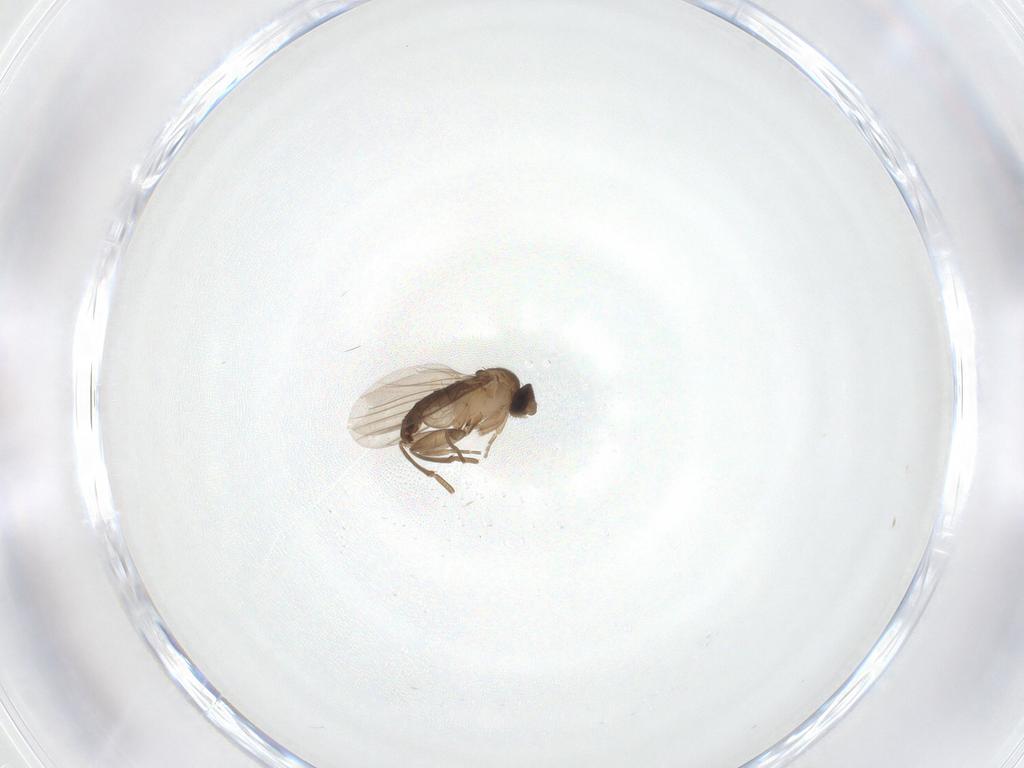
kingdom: Animalia
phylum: Arthropoda
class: Insecta
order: Diptera
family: Phoridae
